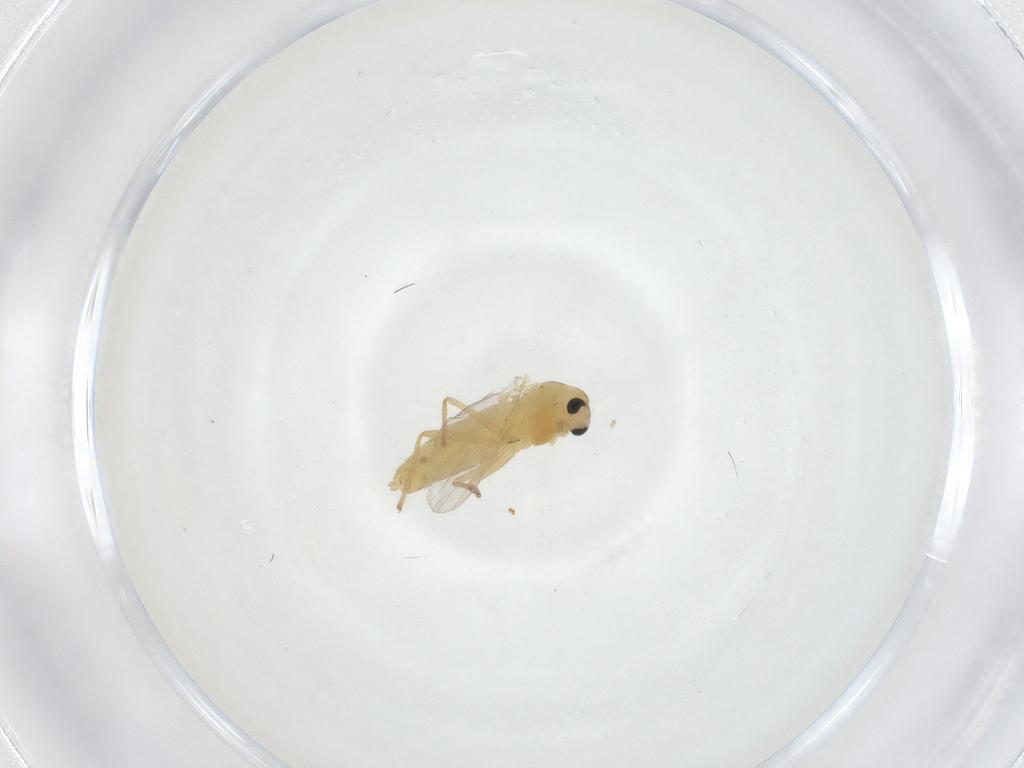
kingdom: Animalia
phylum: Arthropoda
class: Insecta
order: Diptera
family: Chironomidae
